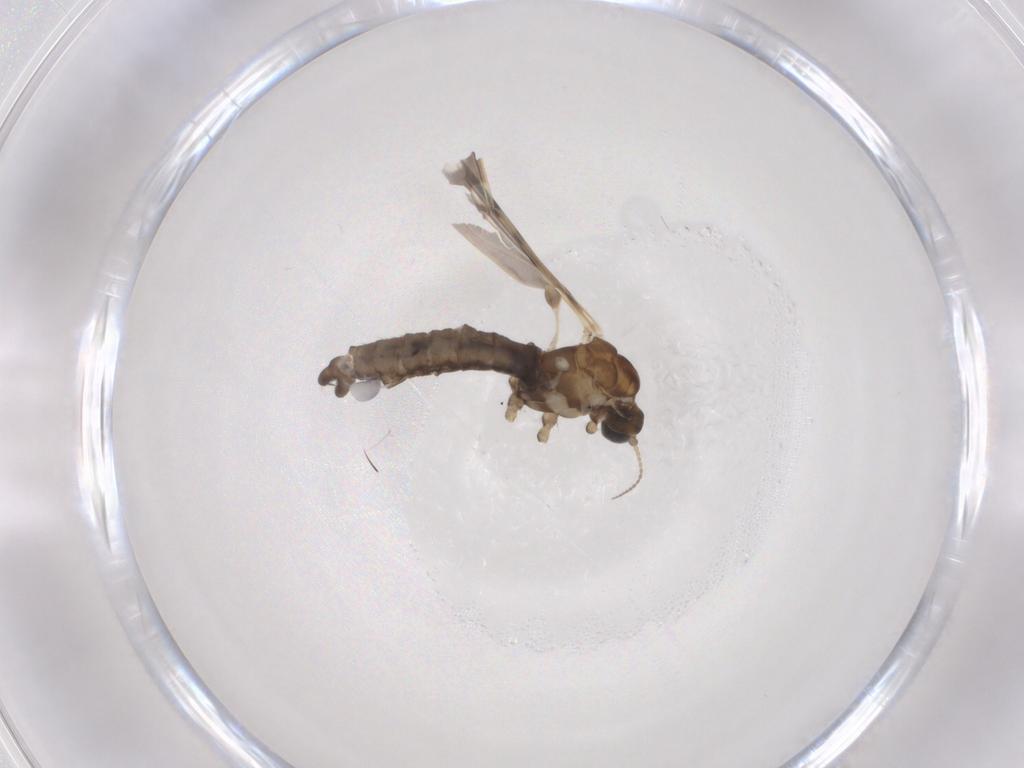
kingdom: Animalia
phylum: Arthropoda
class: Insecta
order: Diptera
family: Limoniidae
